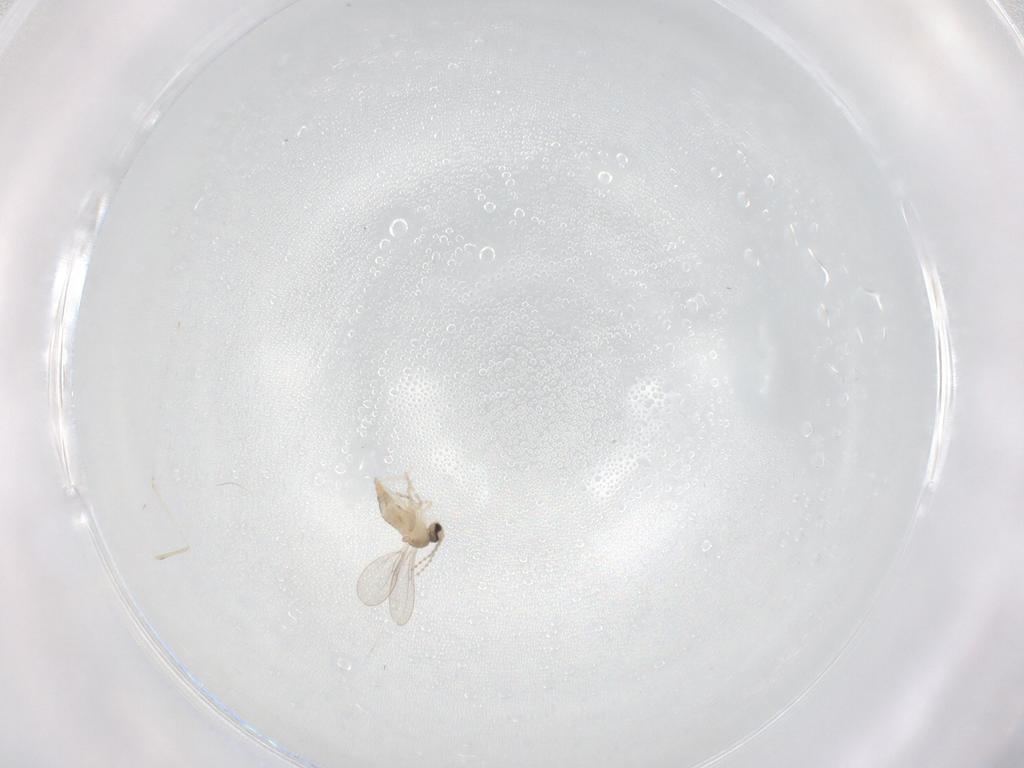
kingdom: Animalia
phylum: Arthropoda
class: Insecta
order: Diptera
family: Cecidomyiidae
